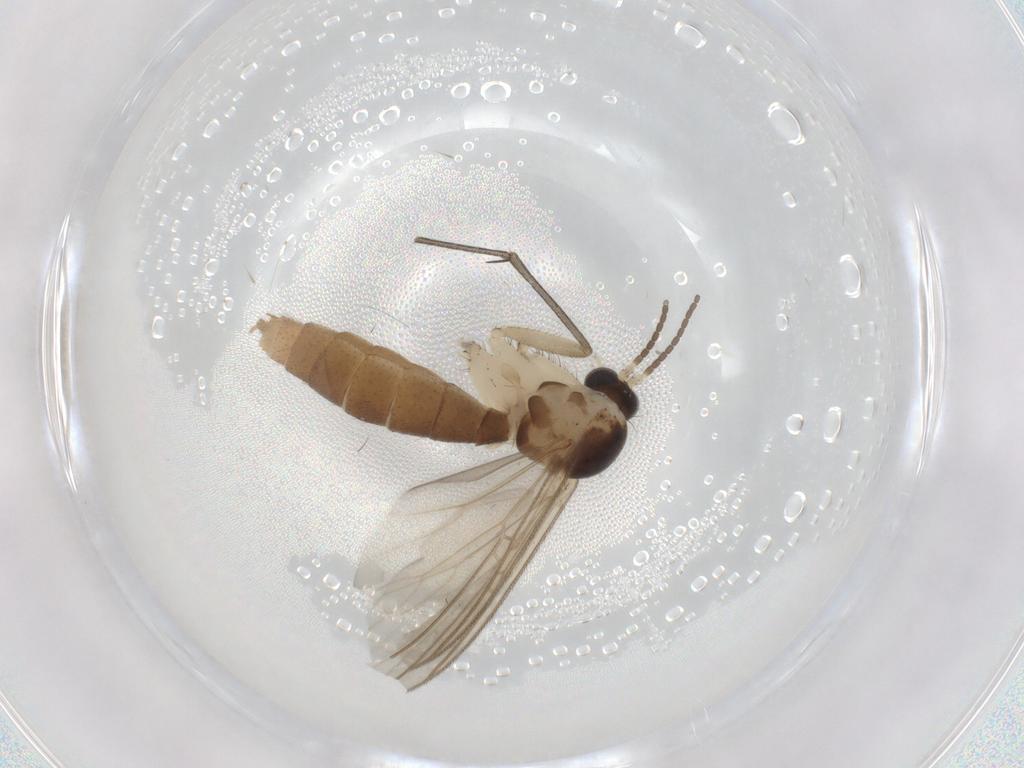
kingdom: Animalia
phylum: Arthropoda
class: Insecta
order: Diptera
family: Mycetophilidae
